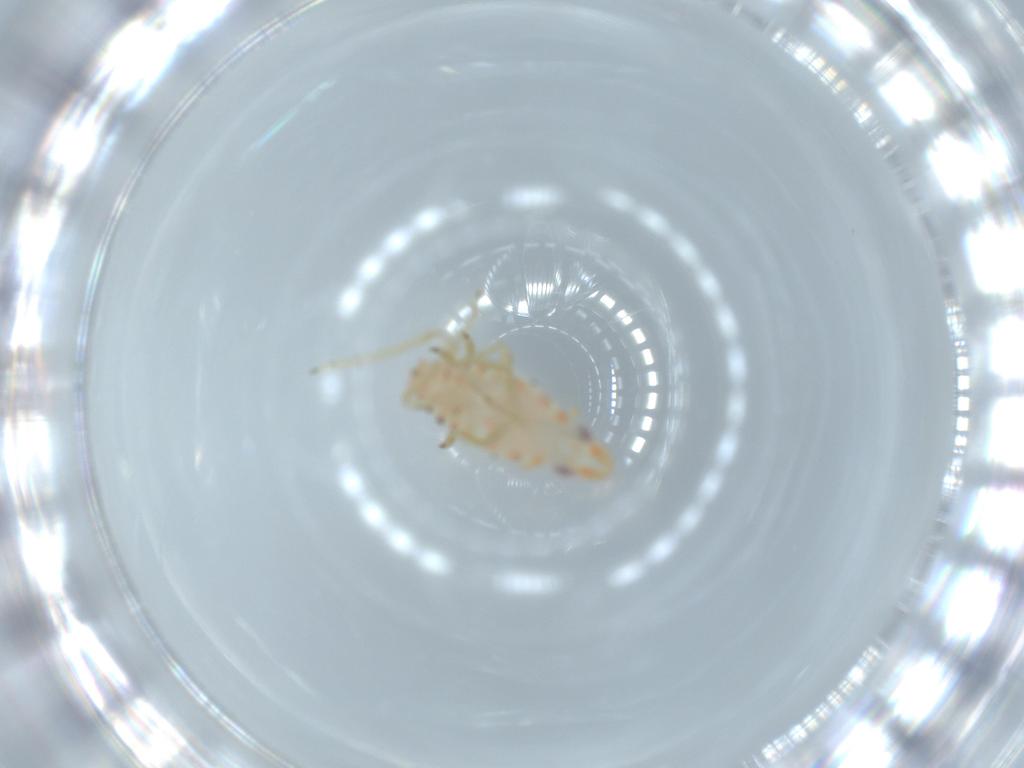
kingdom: Animalia
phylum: Arthropoda
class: Insecta
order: Hemiptera
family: Tropiduchidae
